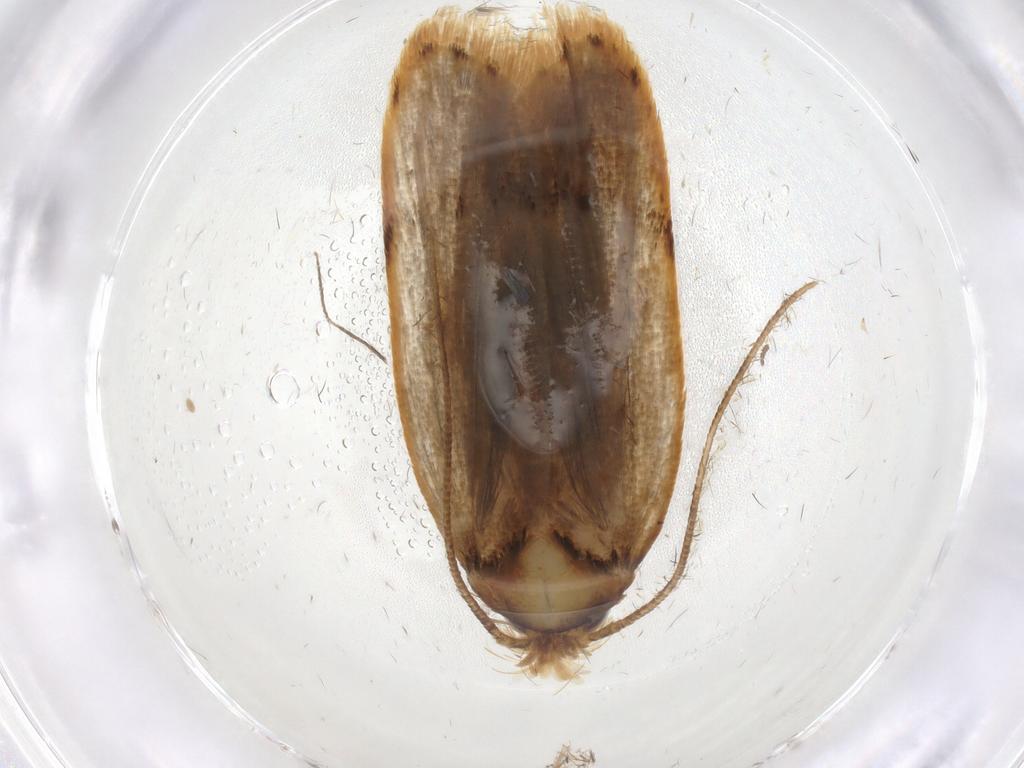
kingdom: Animalia
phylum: Arthropoda
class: Insecta
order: Lepidoptera
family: Depressariidae
